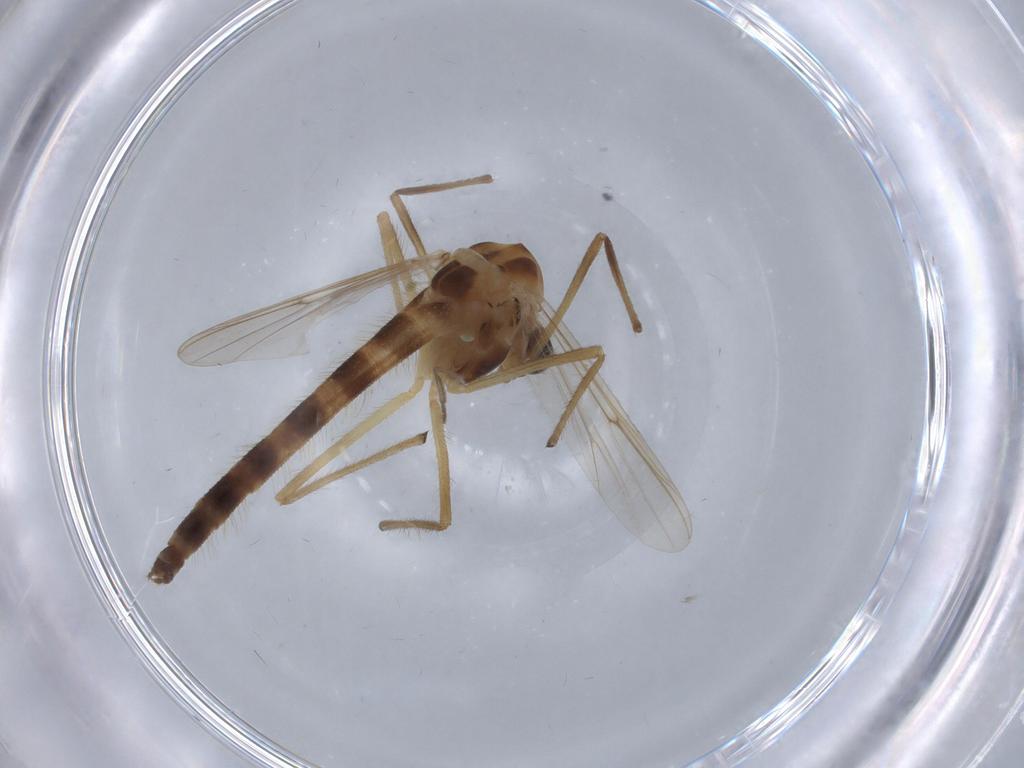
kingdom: Animalia
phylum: Arthropoda
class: Insecta
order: Diptera
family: Chironomidae
